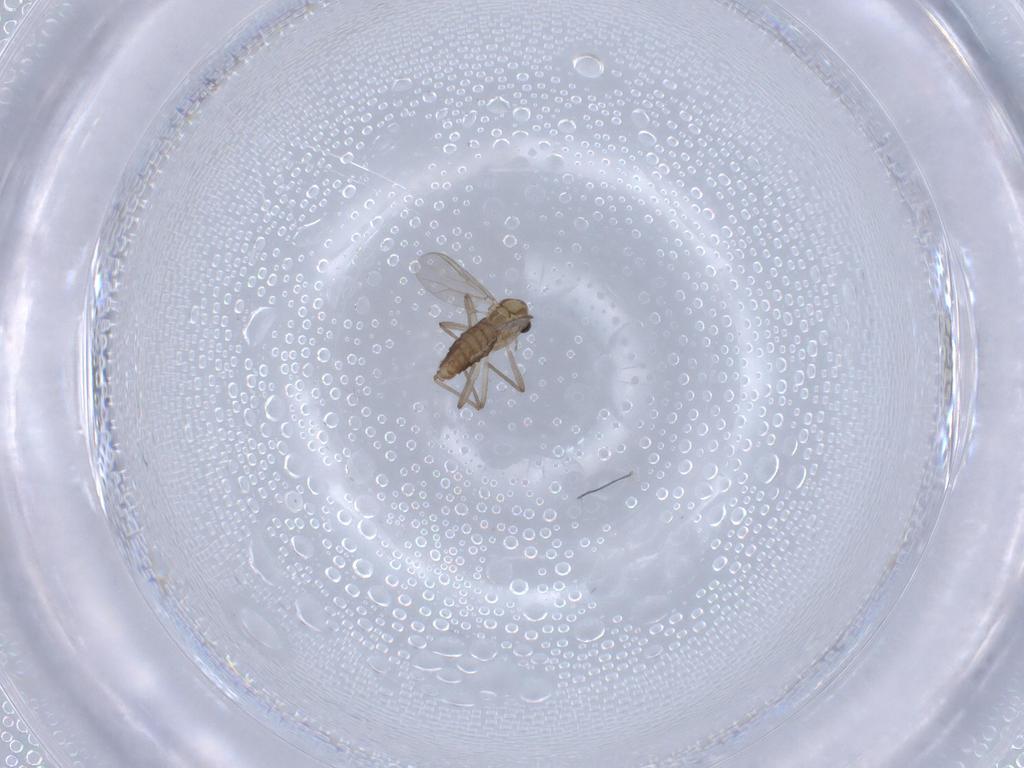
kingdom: Animalia
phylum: Arthropoda
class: Insecta
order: Diptera
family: Chironomidae
